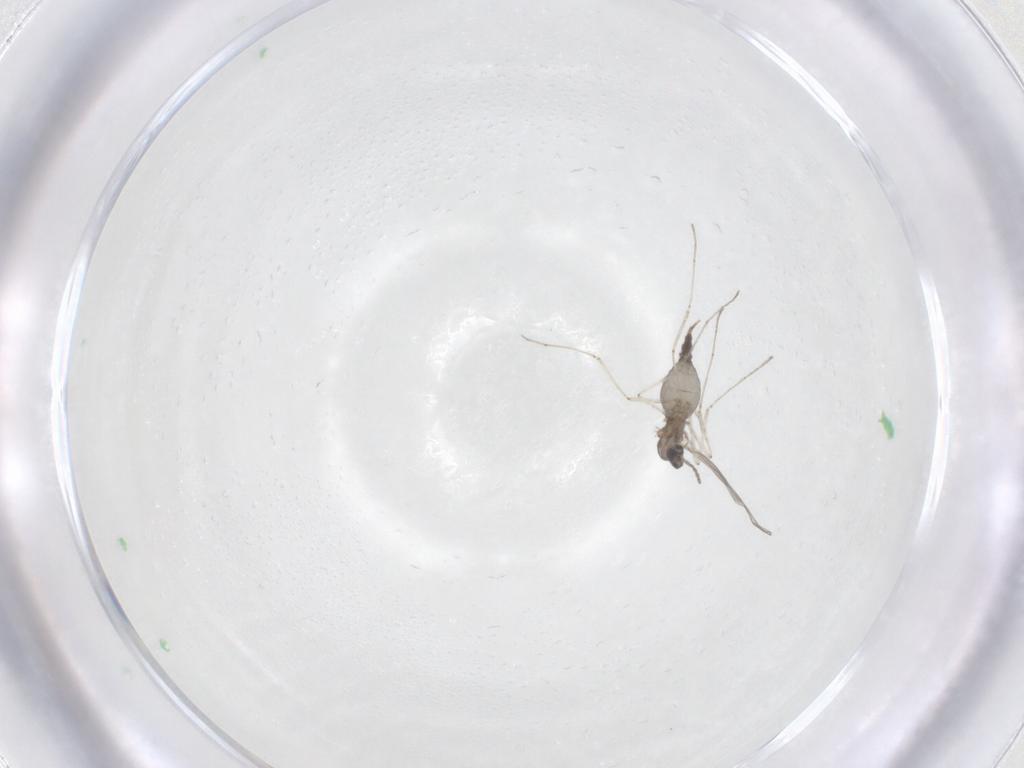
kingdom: Animalia
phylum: Arthropoda
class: Insecta
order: Diptera
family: Cecidomyiidae
